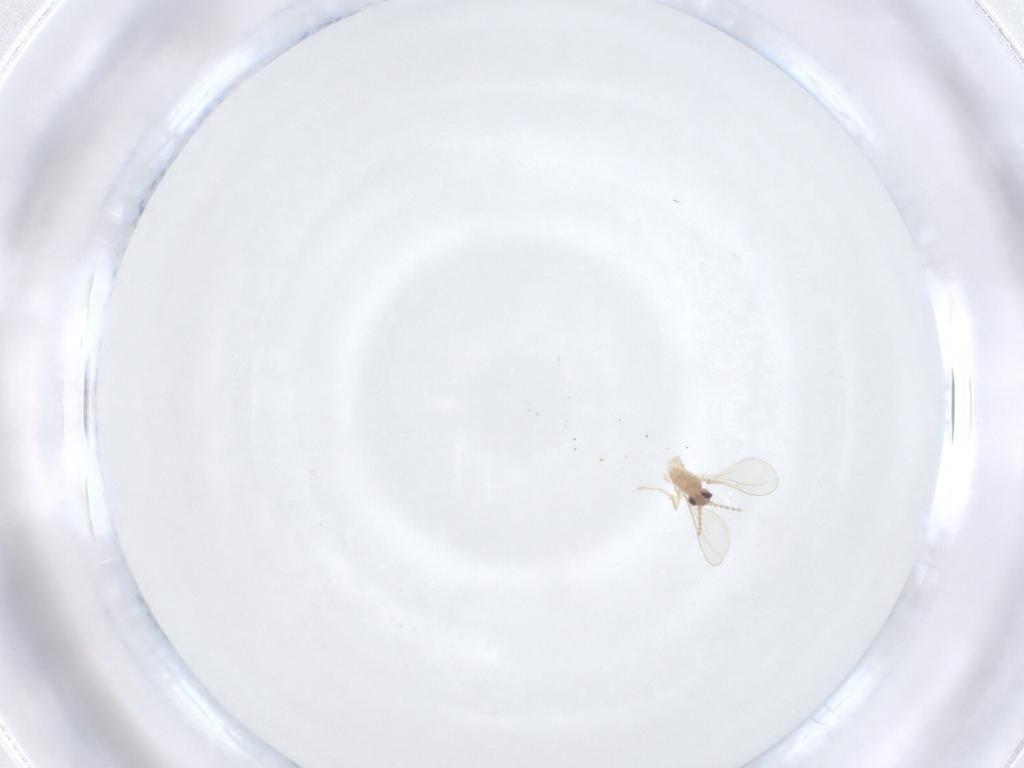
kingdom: Animalia
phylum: Arthropoda
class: Insecta
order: Diptera
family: Cecidomyiidae
